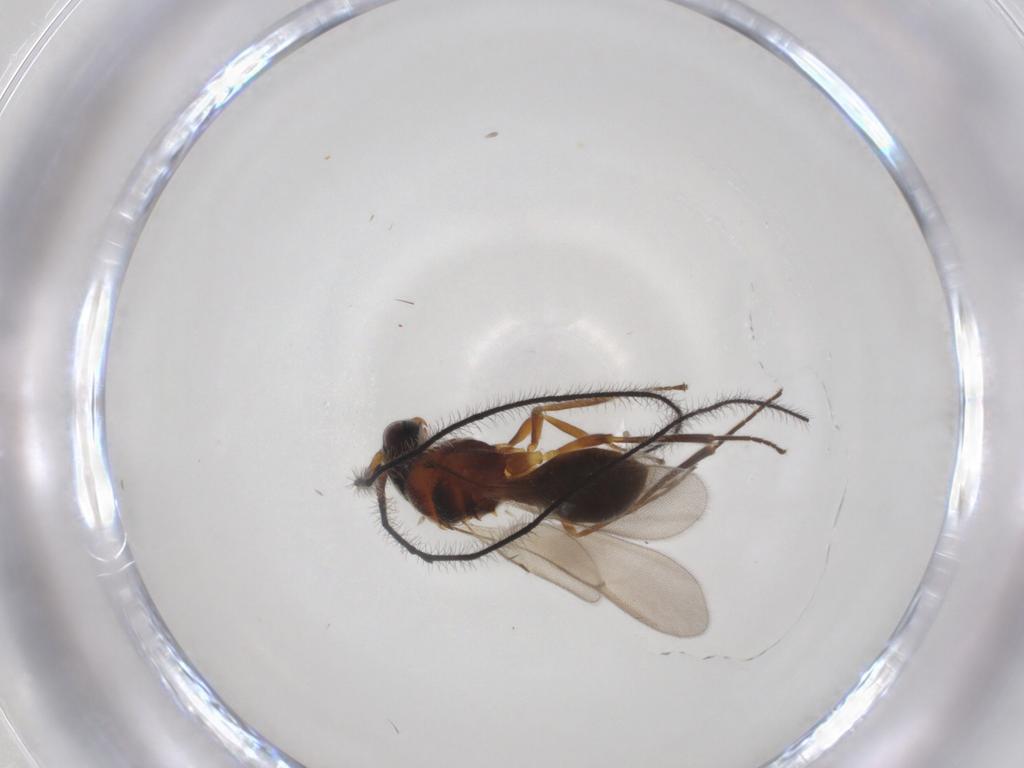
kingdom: Animalia
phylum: Arthropoda
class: Insecta
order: Hymenoptera
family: Scelionidae
